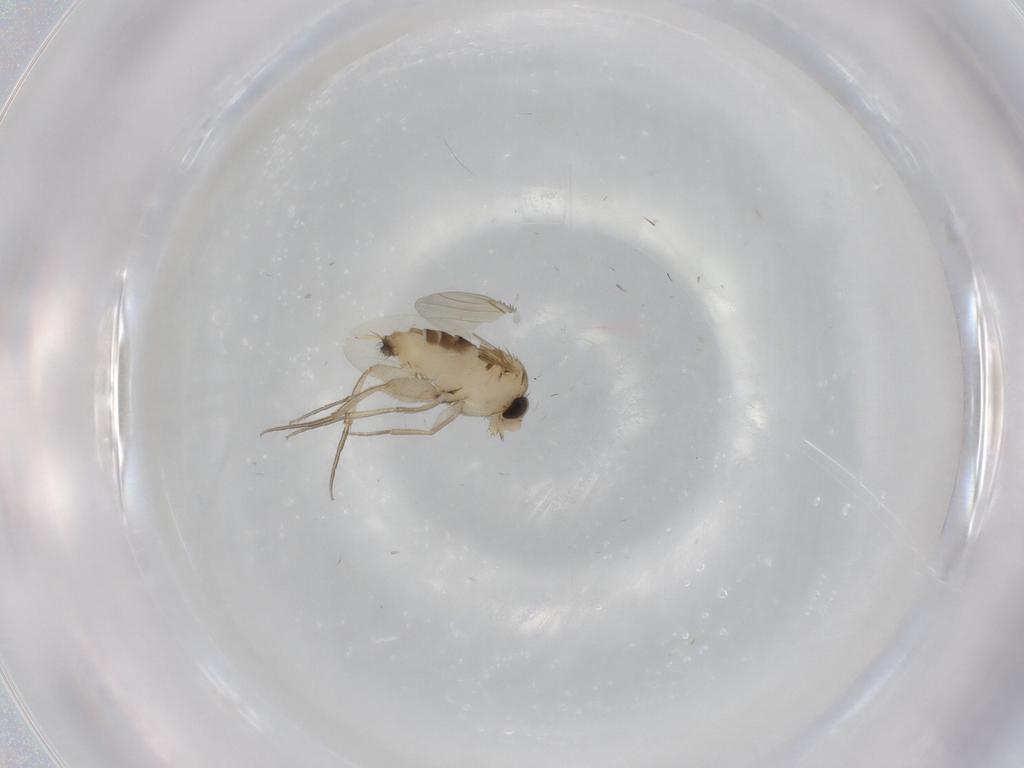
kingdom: Animalia
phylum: Arthropoda
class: Insecta
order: Diptera
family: Phoridae
